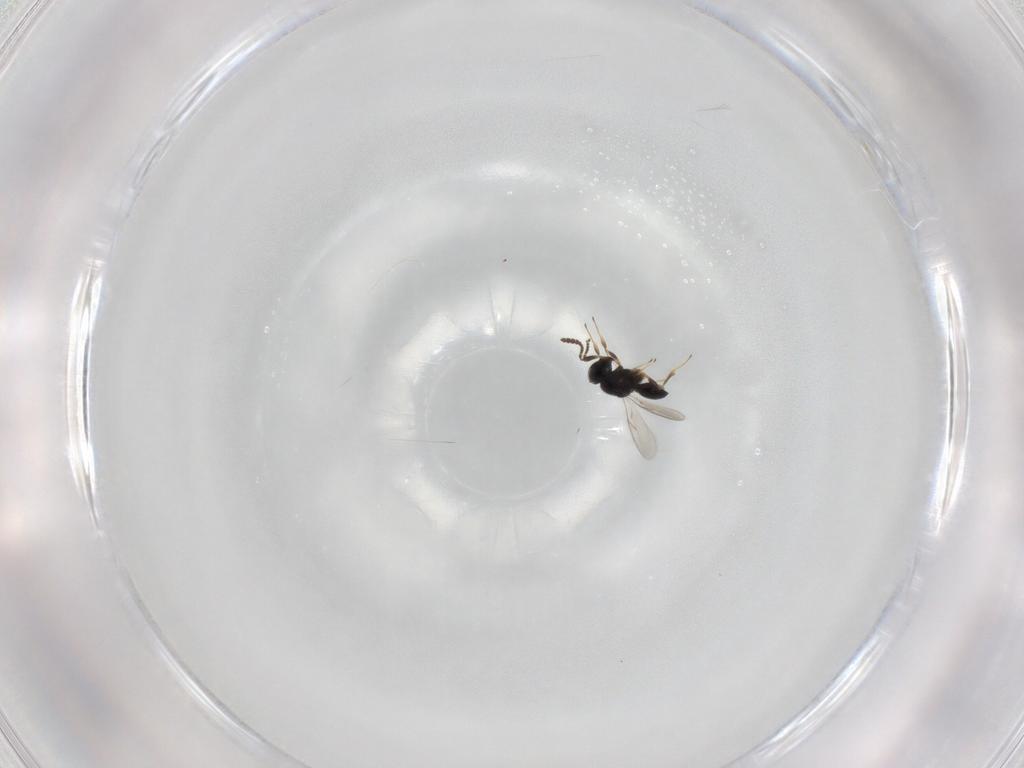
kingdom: Animalia
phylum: Arthropoda
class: Insecta
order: Hymenoptera
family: Scelionidae
